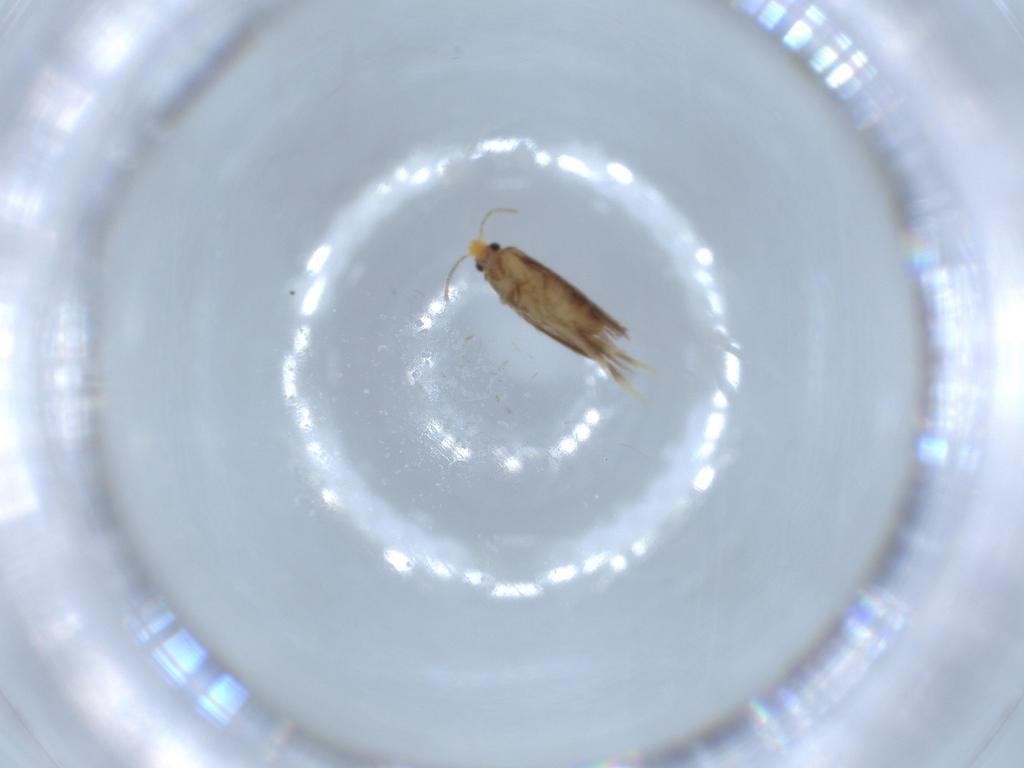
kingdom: Animalia
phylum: Arthropoda
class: Insecta
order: Lepidoptera
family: Nepticulidae
